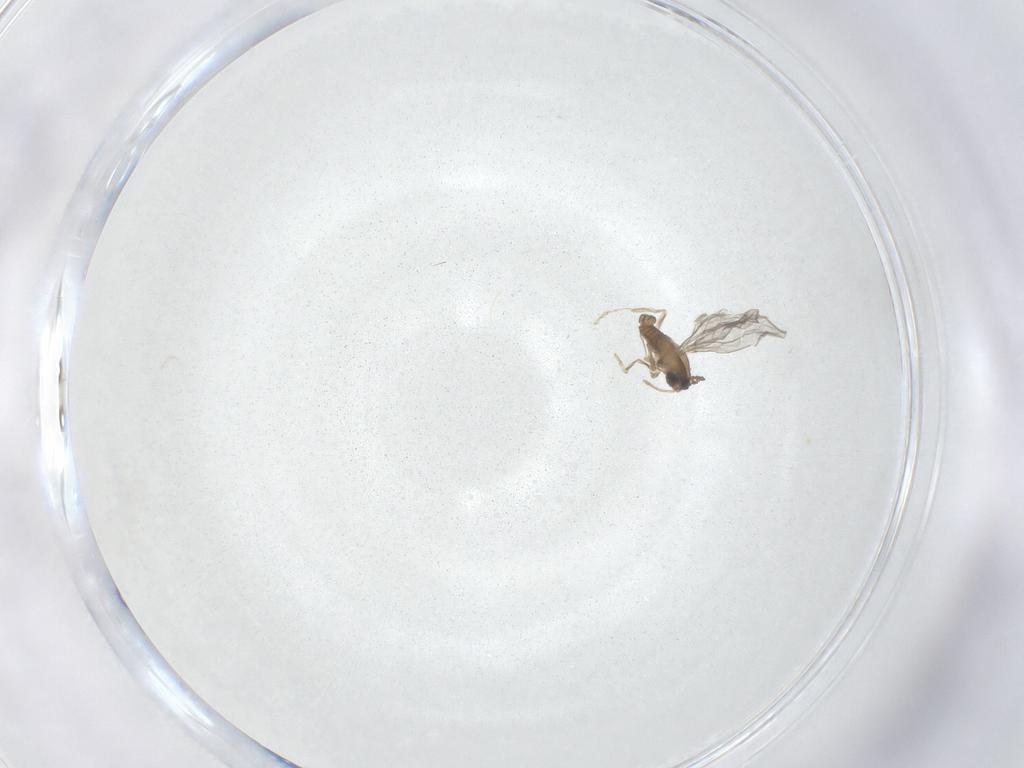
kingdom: Animalia
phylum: Arthropoda
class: Insecta
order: Diptera
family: Cecidomyiidae
